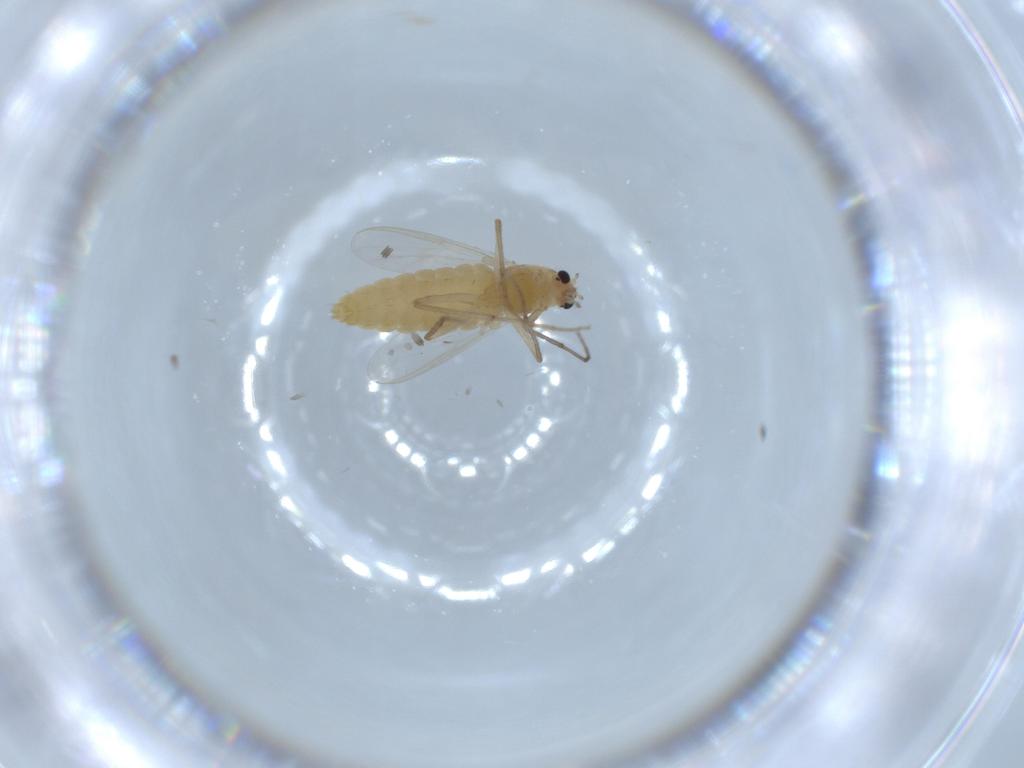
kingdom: Animalia
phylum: Arthropoda
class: Insecta
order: Diptera
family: Chironomidae
